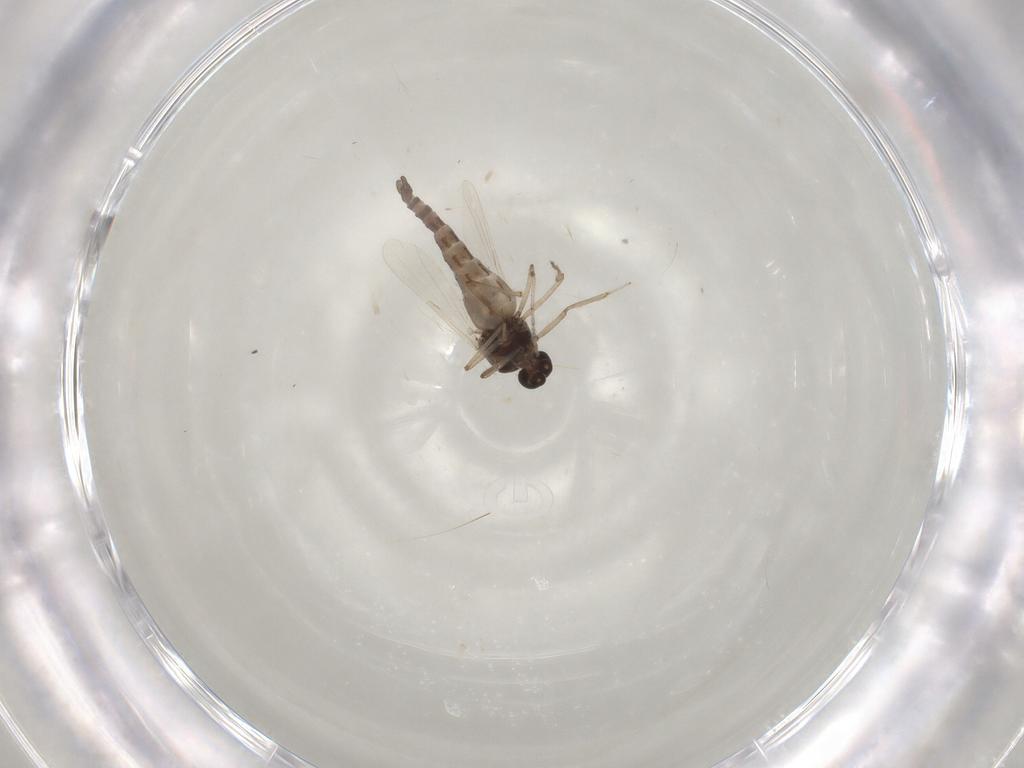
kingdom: Animalia
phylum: Arthropoda
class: Insecta
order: Diptera
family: Ceratopogonidae
